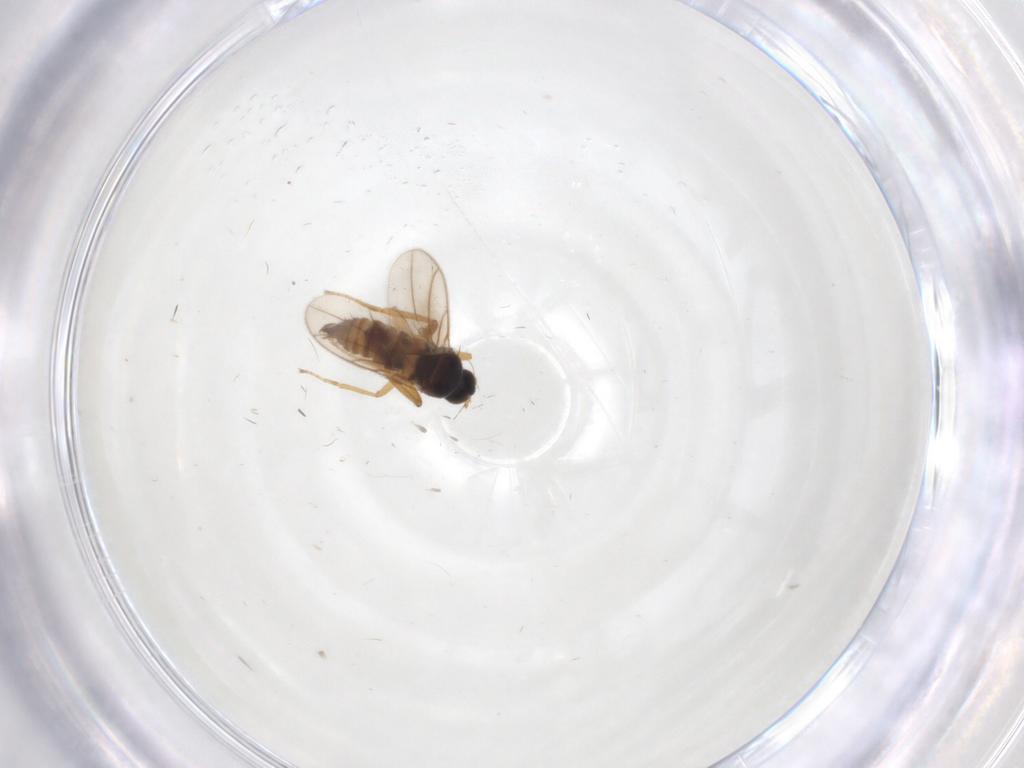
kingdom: Animalia
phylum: Arthropoda
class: Insecta
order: Diptera
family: Hybotidae
